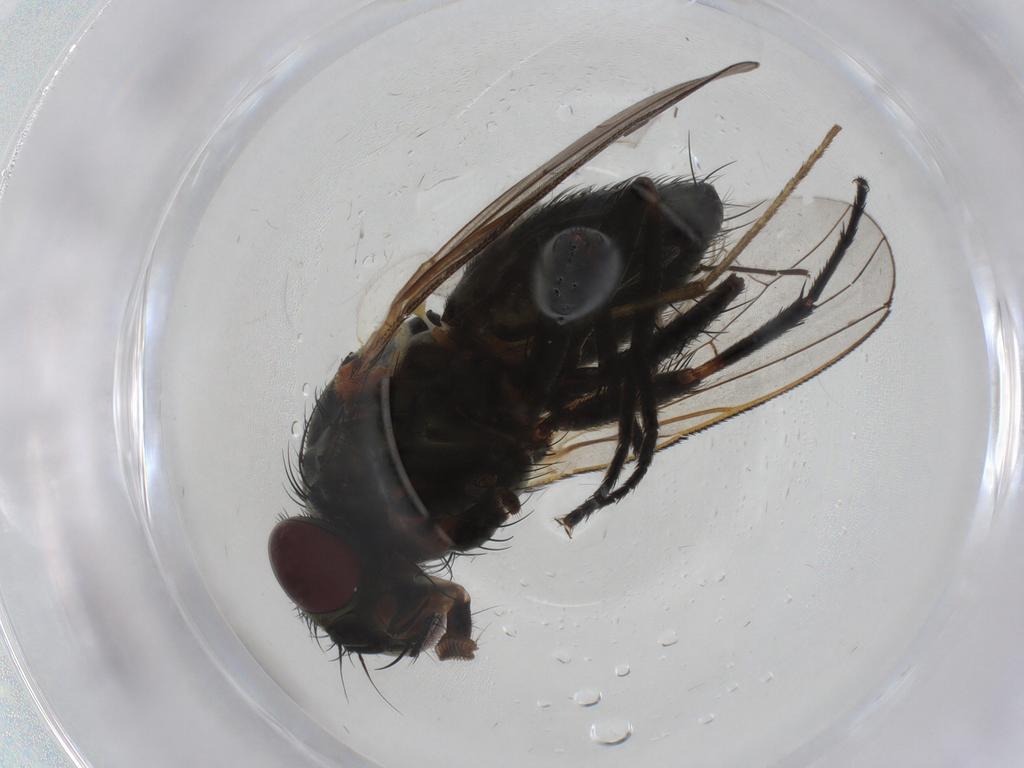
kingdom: Animalia
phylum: Arthropoda
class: Insecta
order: Diptera
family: Fannia
